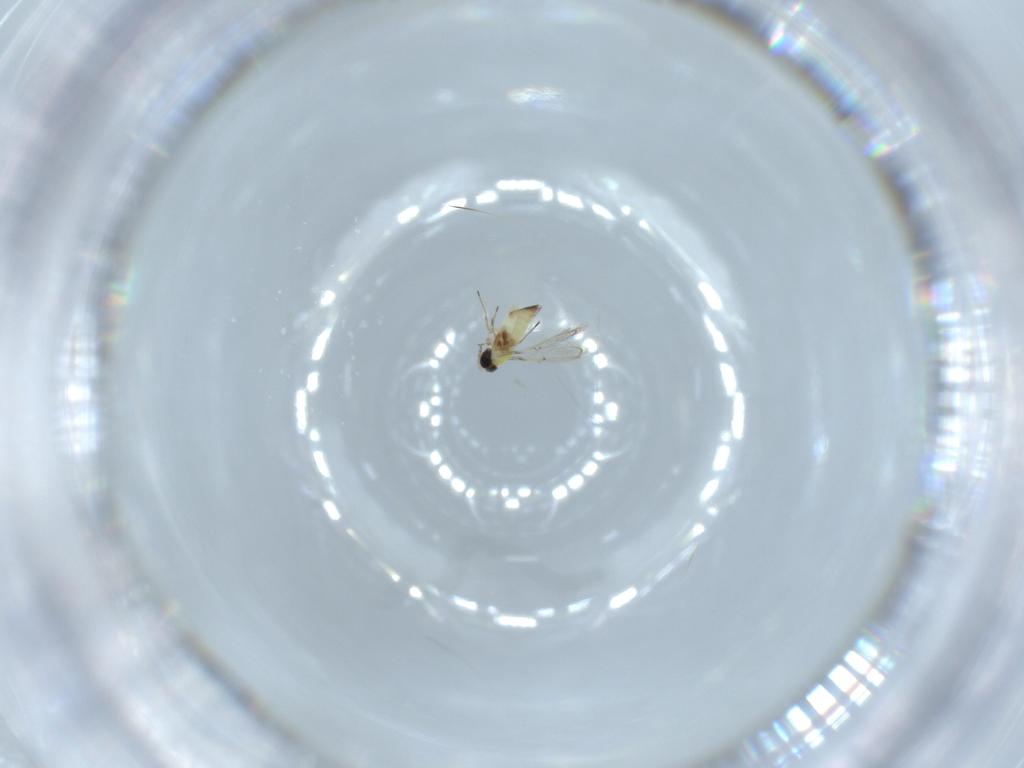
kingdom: Animalia
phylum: Arthropoda
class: Insecta
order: Hymenoptera
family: Trichogrammatidae
